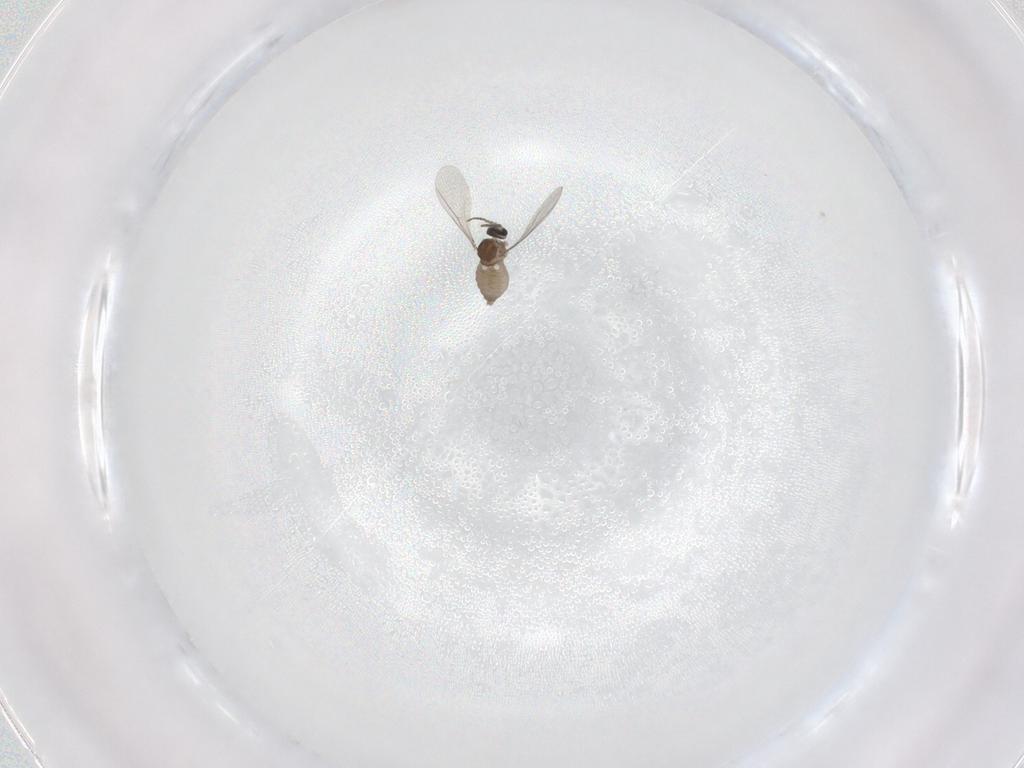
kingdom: Animalia
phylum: Arthropoda
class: Insecta
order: Diptera
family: Cecidomyiidae
